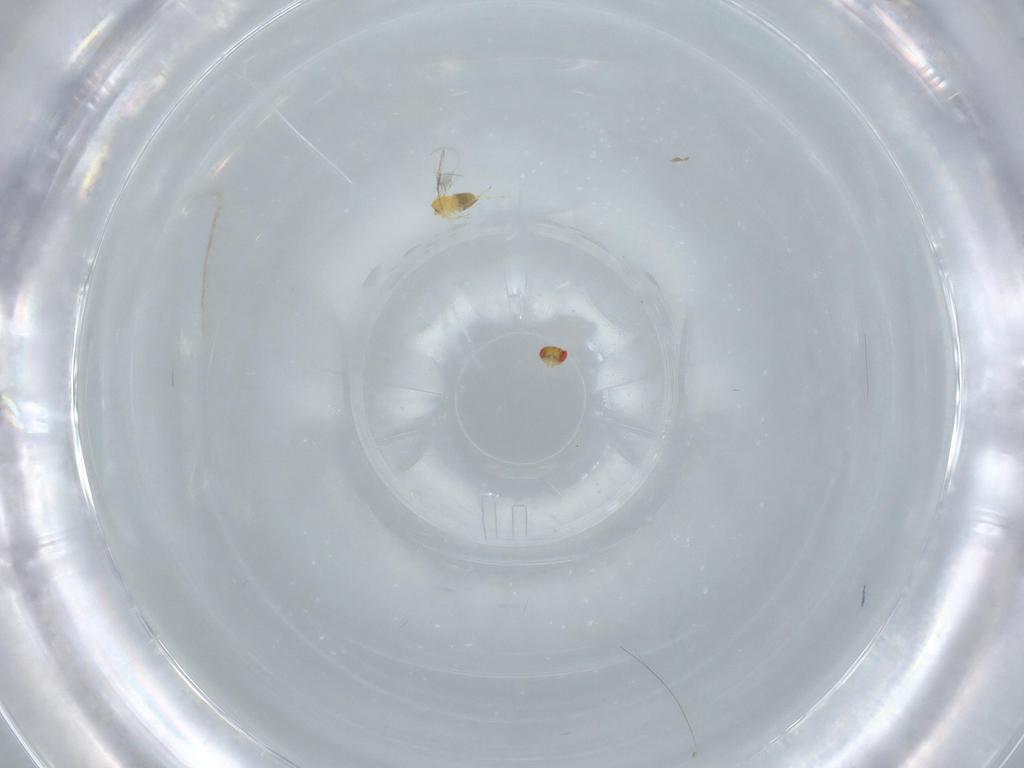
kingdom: Animalia
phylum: Arthropoda
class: Insecta
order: Hymenoptera
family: Trichogrammatidae
